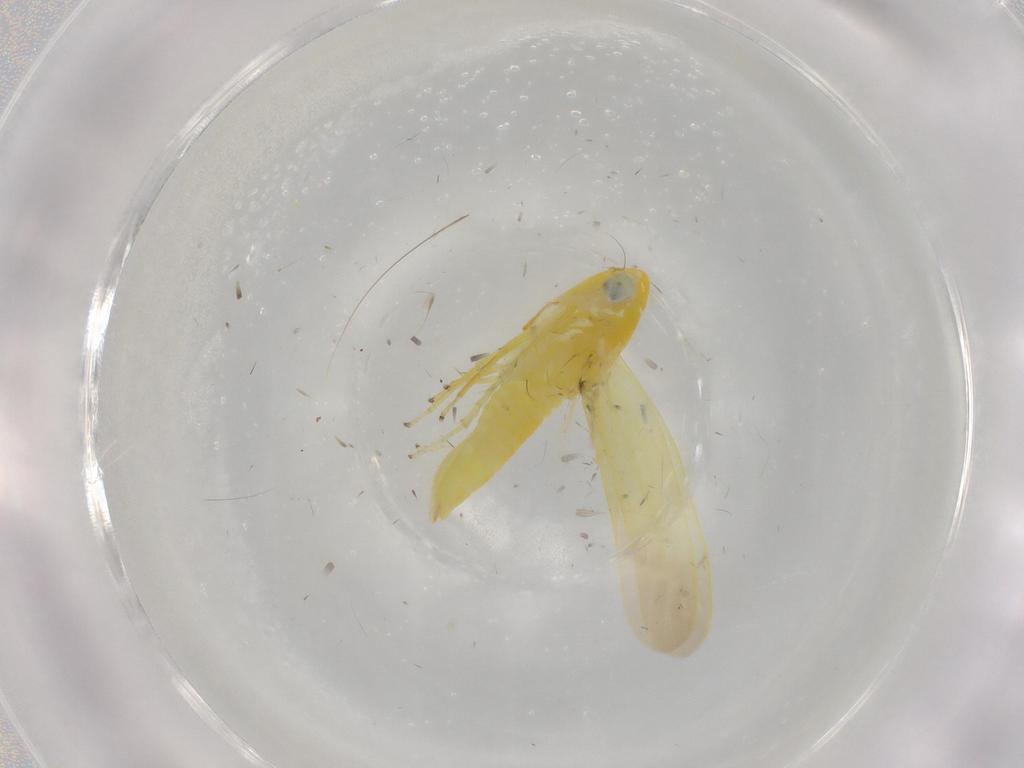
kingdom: Animalia
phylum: Arthropoda
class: Insecta
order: Hemiptera
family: Cicadellidae
